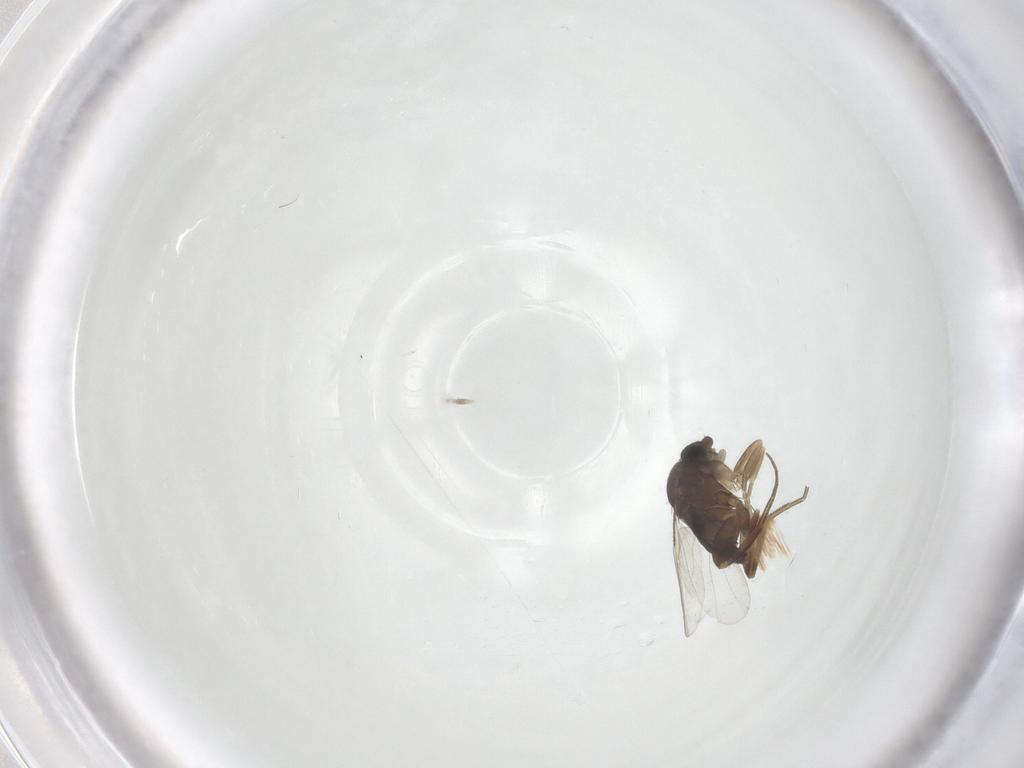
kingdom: Animalia
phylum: Arthropoda
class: Insecta
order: Diptera
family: Phoridae
